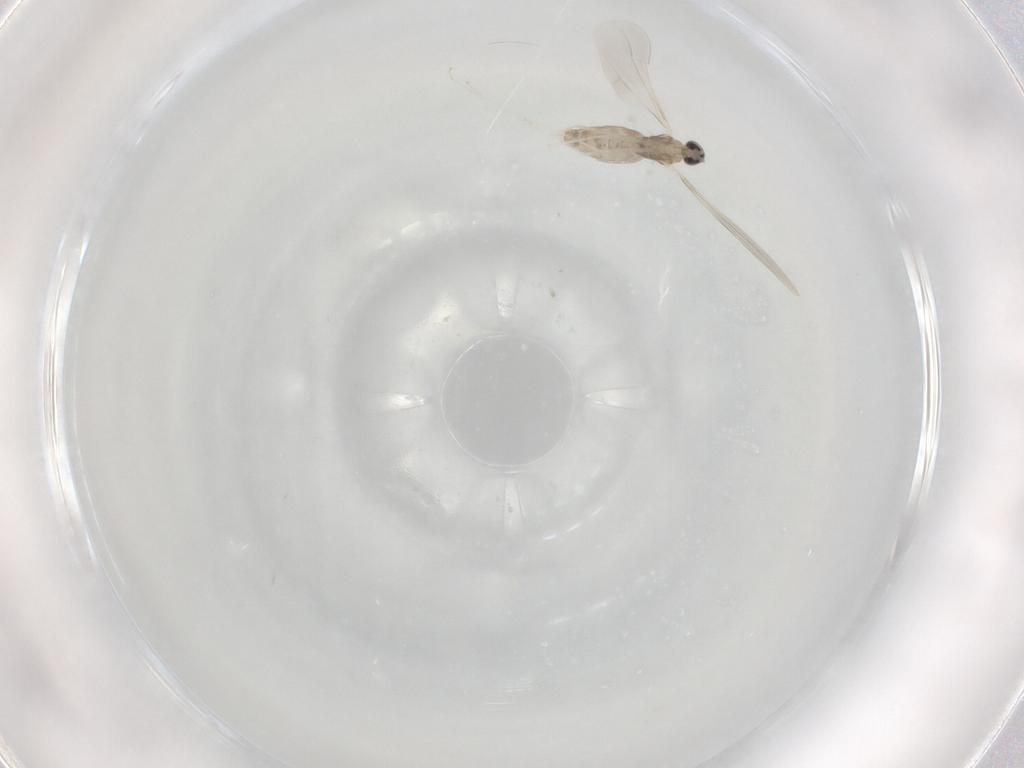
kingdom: Animalia
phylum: Arthropoda
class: Insecta
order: Diptera
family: Cecidomyiidae
